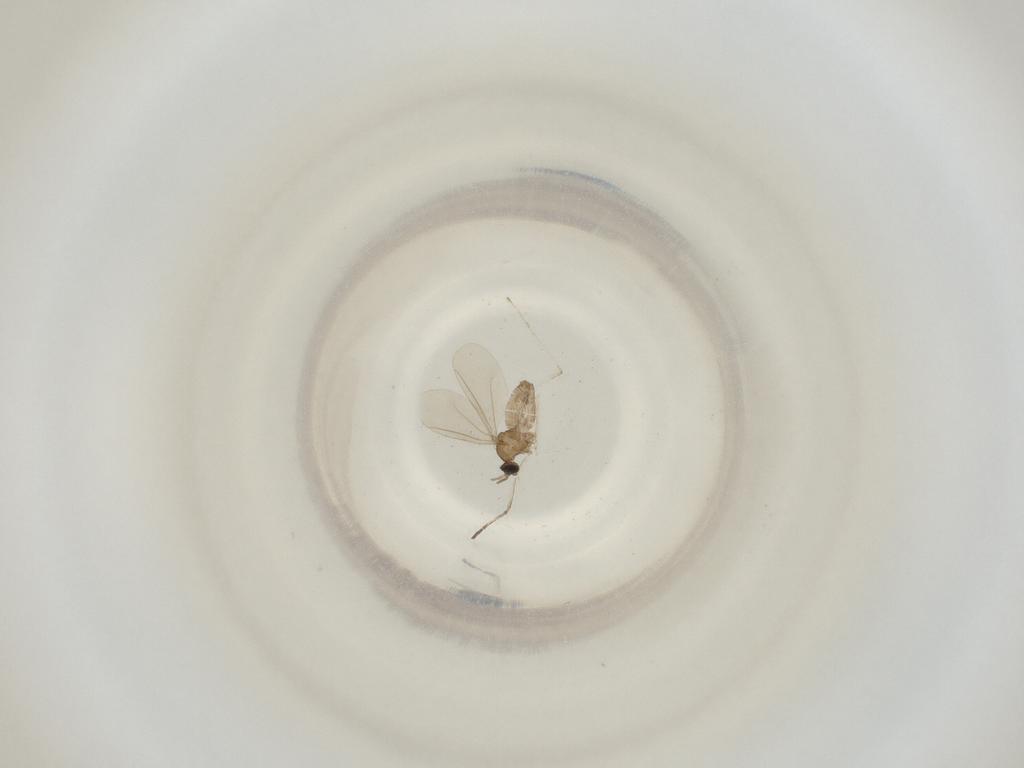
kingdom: Animalia
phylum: Arthropoda
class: Insecta
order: Diptera
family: Cecidomyiidae
